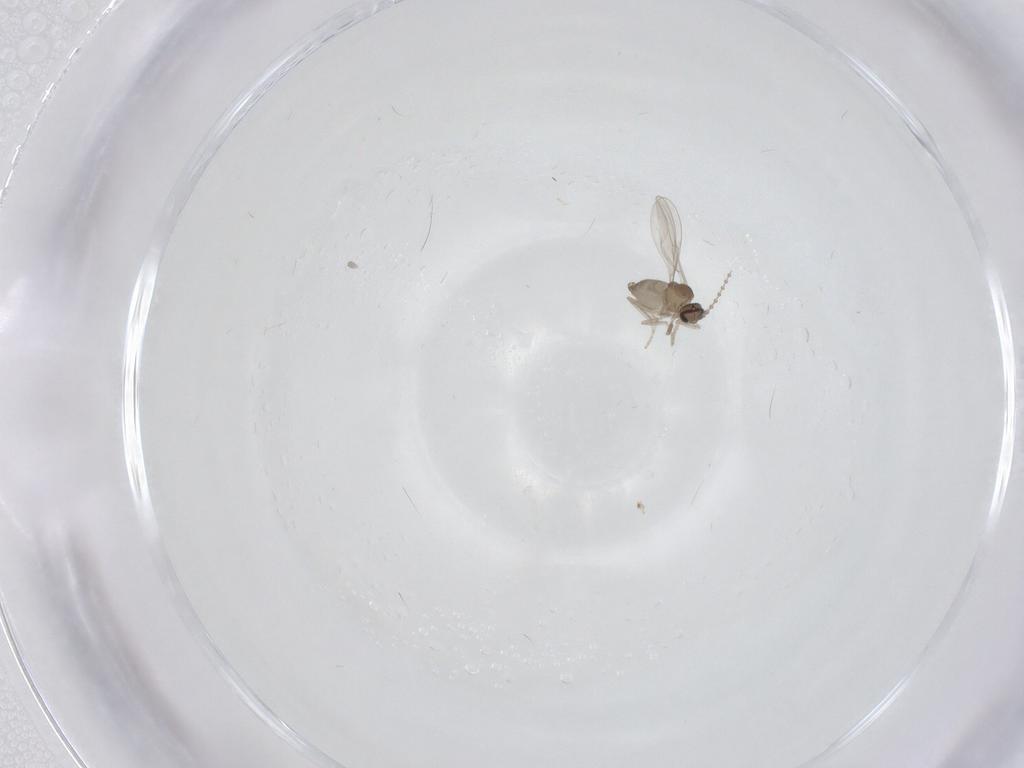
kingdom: Animalia
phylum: Arthropoda
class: Insecta
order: Diptera
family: Cecidomyiidae
